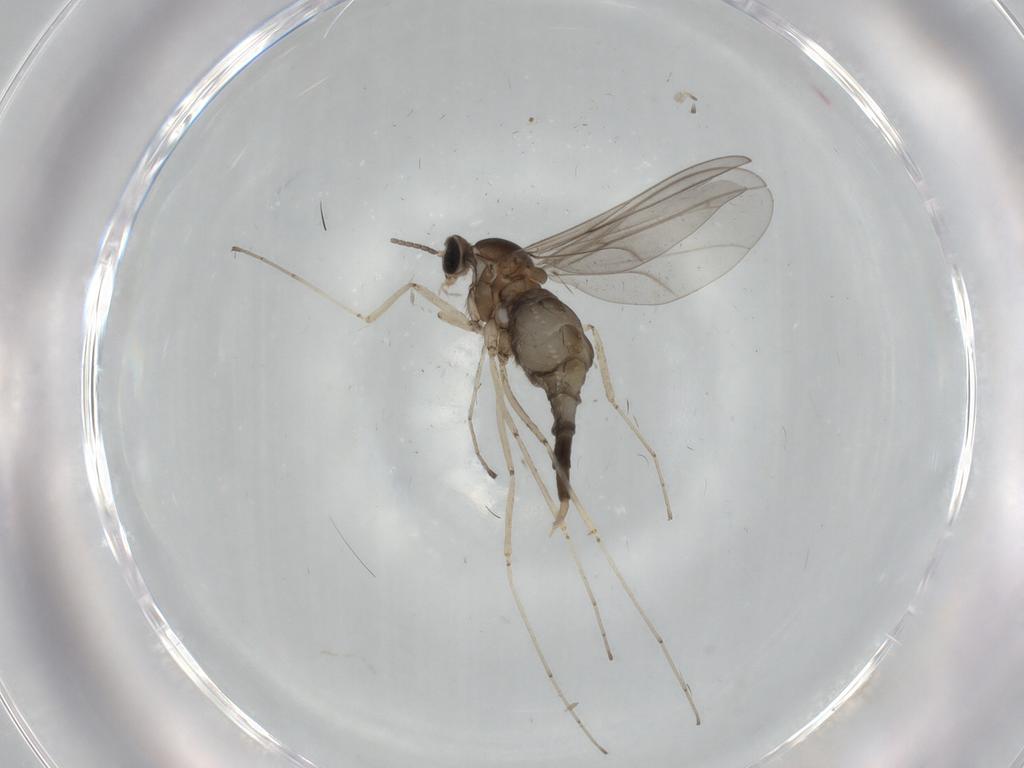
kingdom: Animalia
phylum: Arthropoda
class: Insecta
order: Diptera
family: Cecidomyiidae
